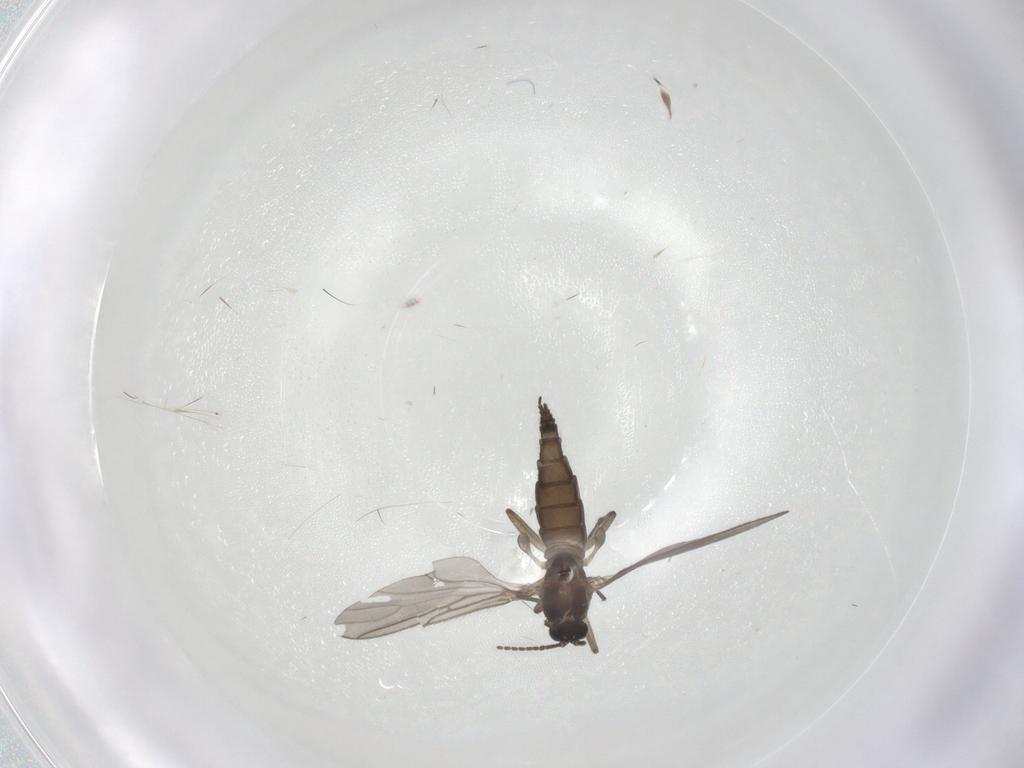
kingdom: Animalia
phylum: Arthropoda
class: Insecta
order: Diptera
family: Sciaridae
